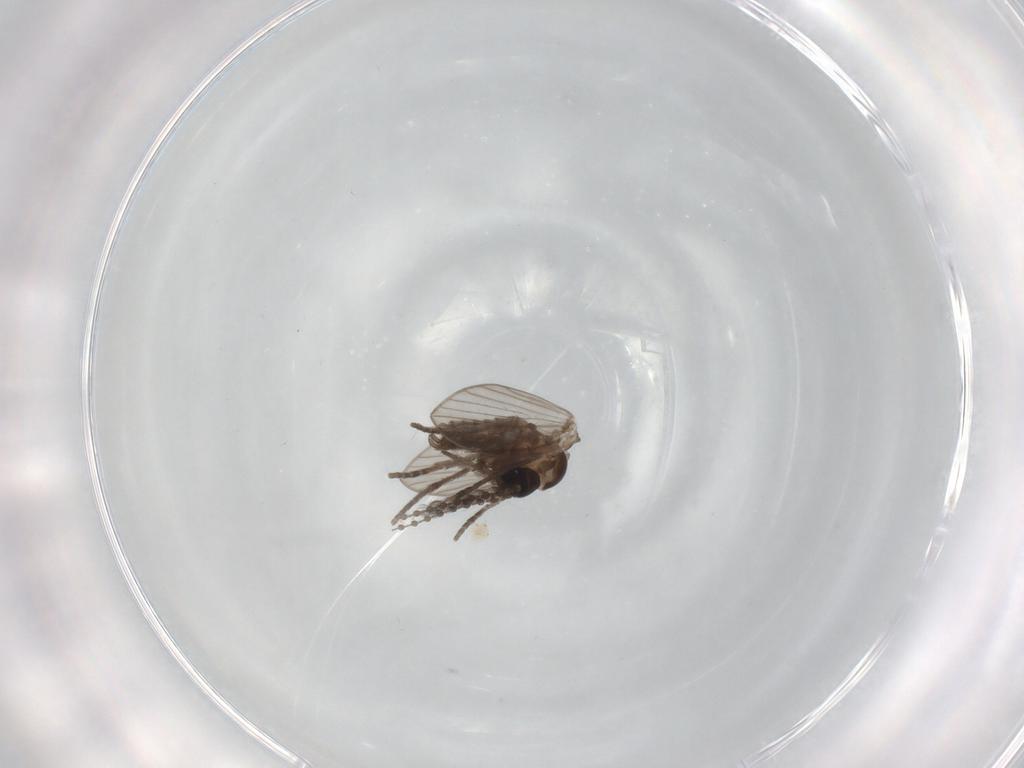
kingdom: Animalia
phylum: Arthropoda
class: Insecta
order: Diptera
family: Psychodidae
